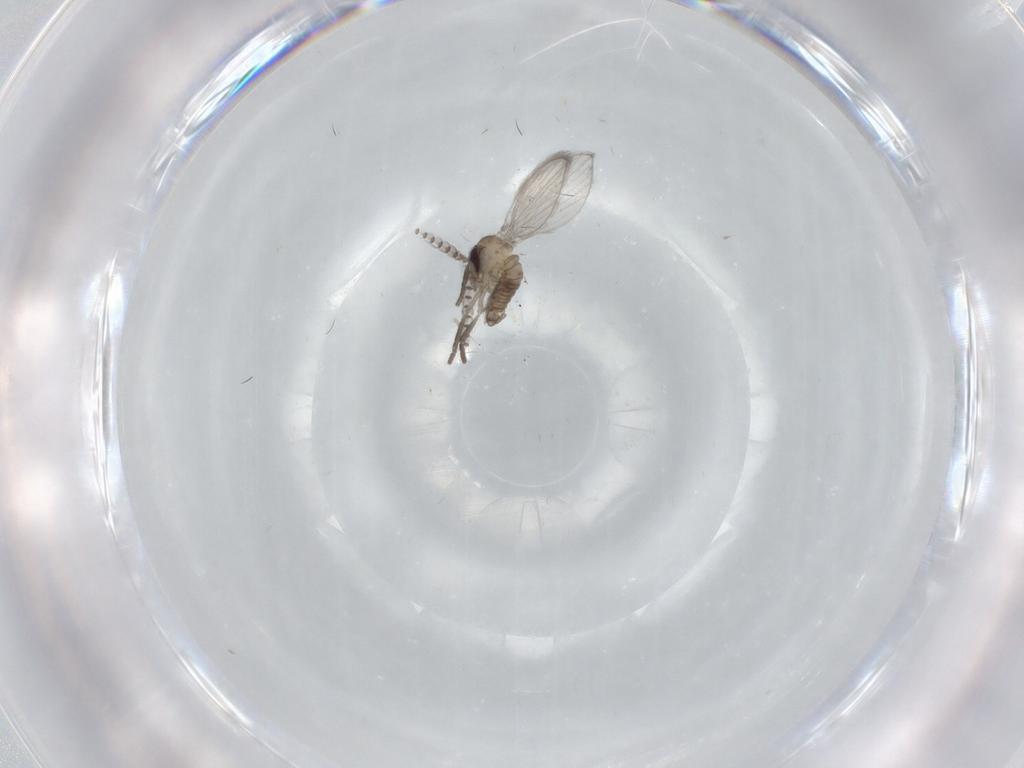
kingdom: Animalia
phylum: Arthropoda
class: Insecta
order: Diptera
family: Psychodidae
